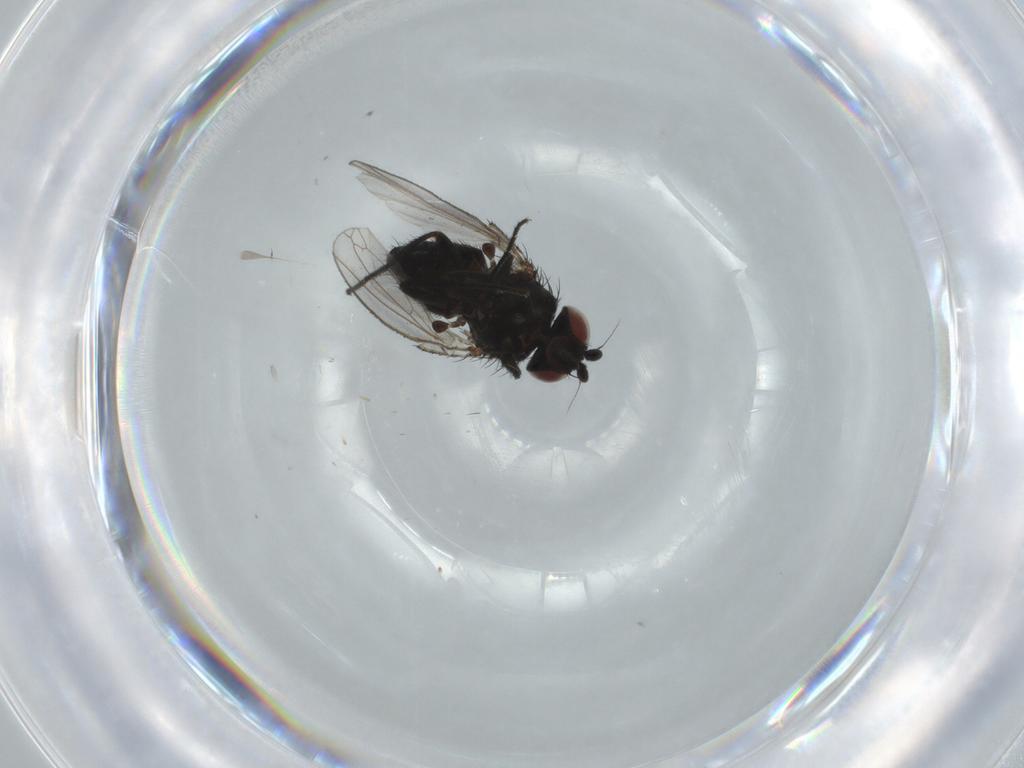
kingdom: Animalia
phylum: Arthropoda
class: Insecta
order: Diptera
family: Milichiidae
